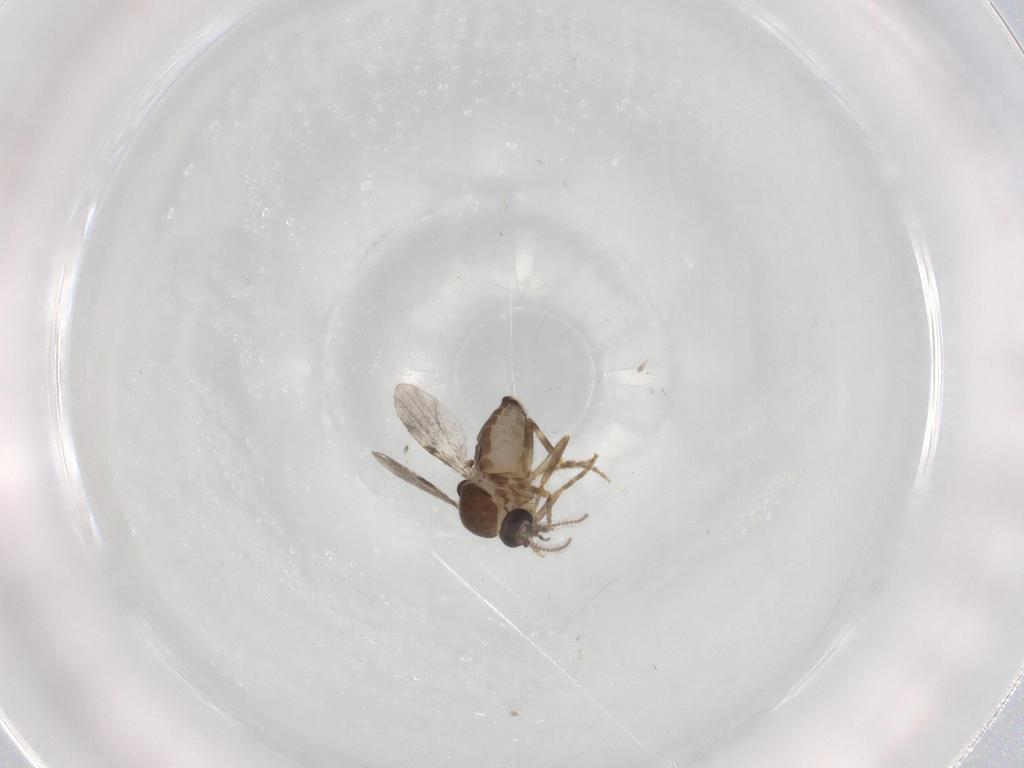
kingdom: Animalia
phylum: Arthropoda
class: Insecta
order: Diptera
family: Ceratopogonidae
